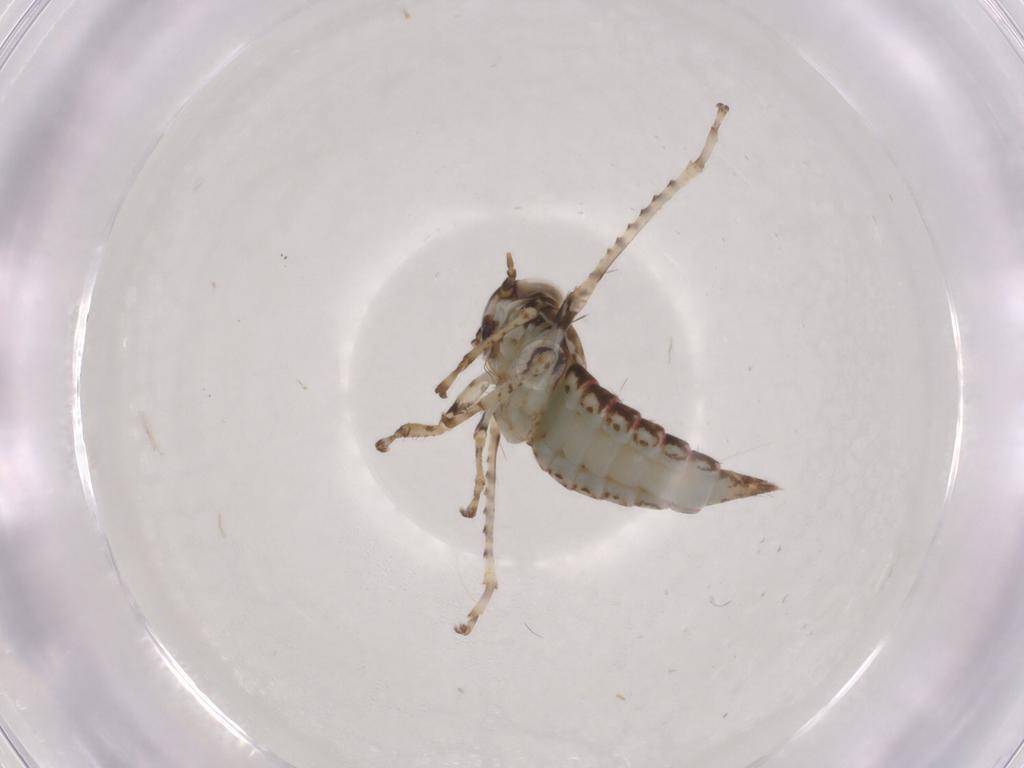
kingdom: Animalia
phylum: Arthropoda
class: Insecta
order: Hemiptera
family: Cicadellidae
